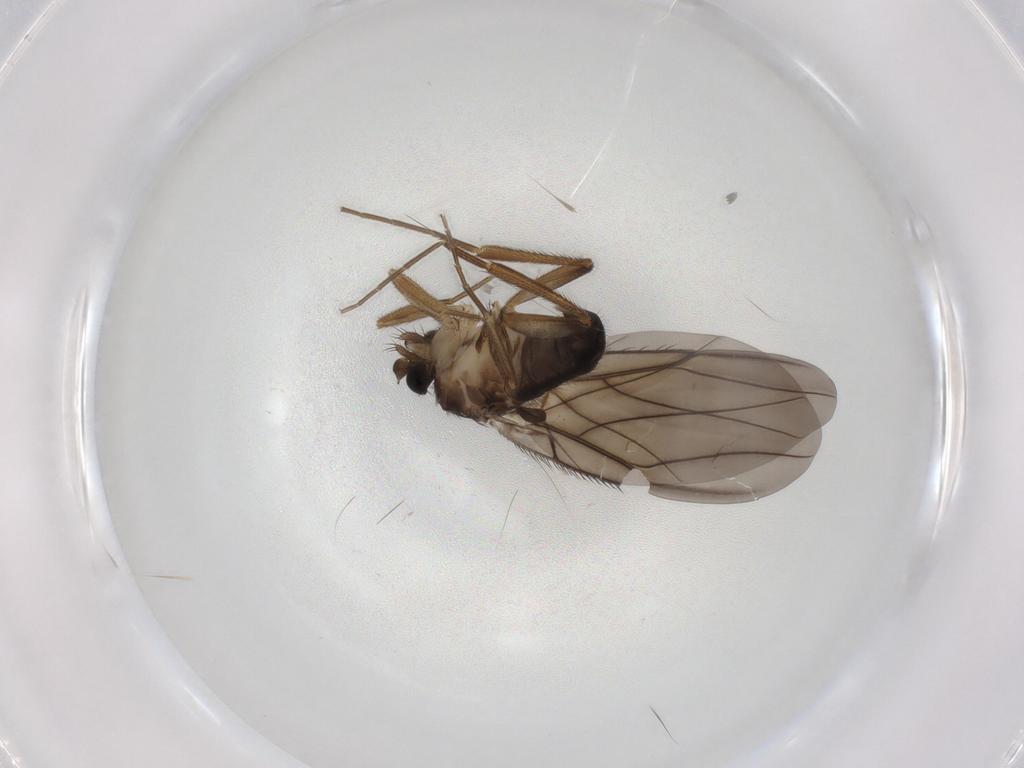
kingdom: Animalia
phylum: Arthropoda
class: Insecta
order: Diptera
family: Phoridae
